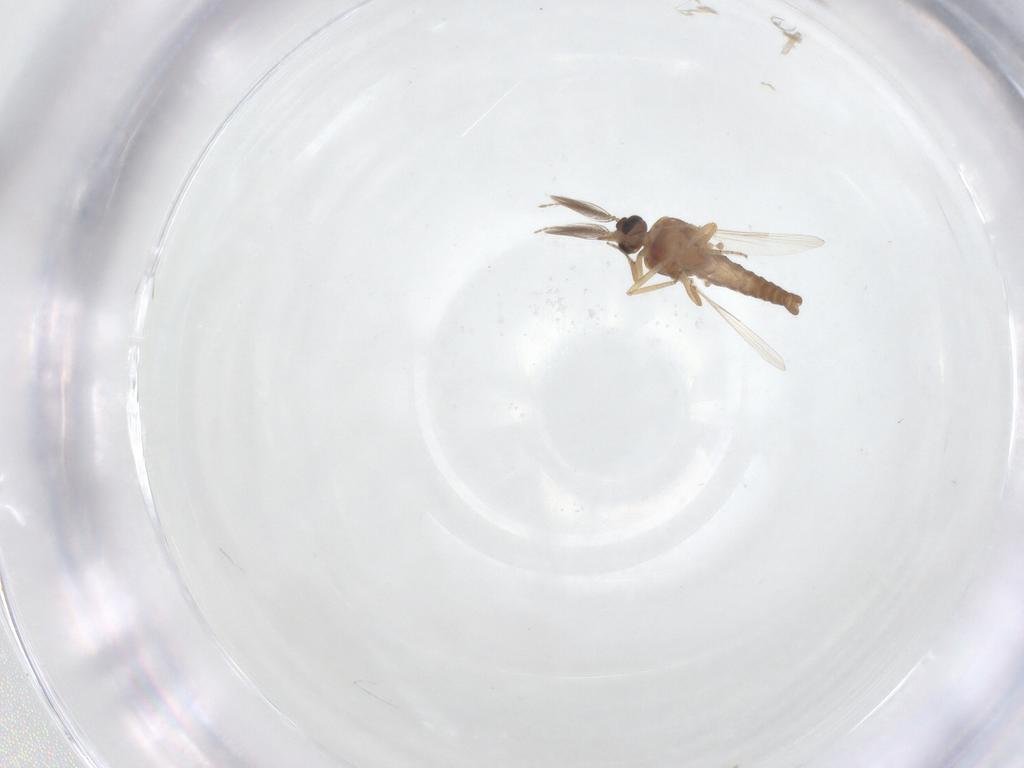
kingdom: Animalia
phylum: Arthropoda
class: Insecta
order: Diptera
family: Ceratopogonidae
